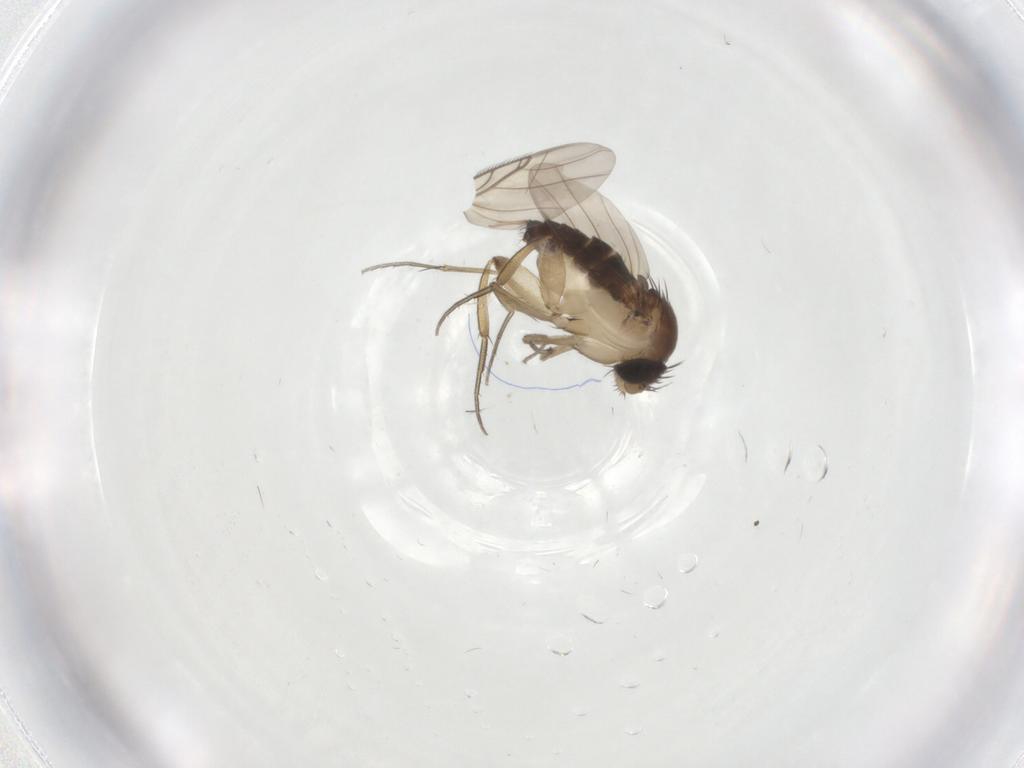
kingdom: Animalia
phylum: Arthropoda
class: Insecta
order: Diptera
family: Phoridae
